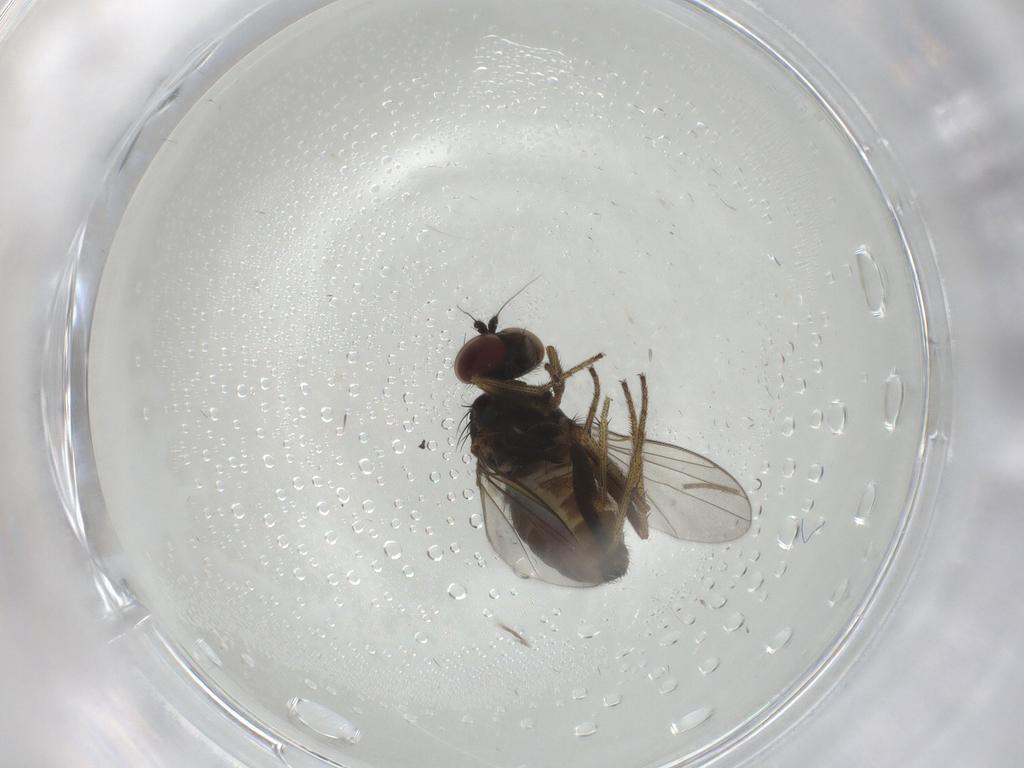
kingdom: Animalia
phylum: Arthropoda
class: Insecta
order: Diptera
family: Dolichopodidae
